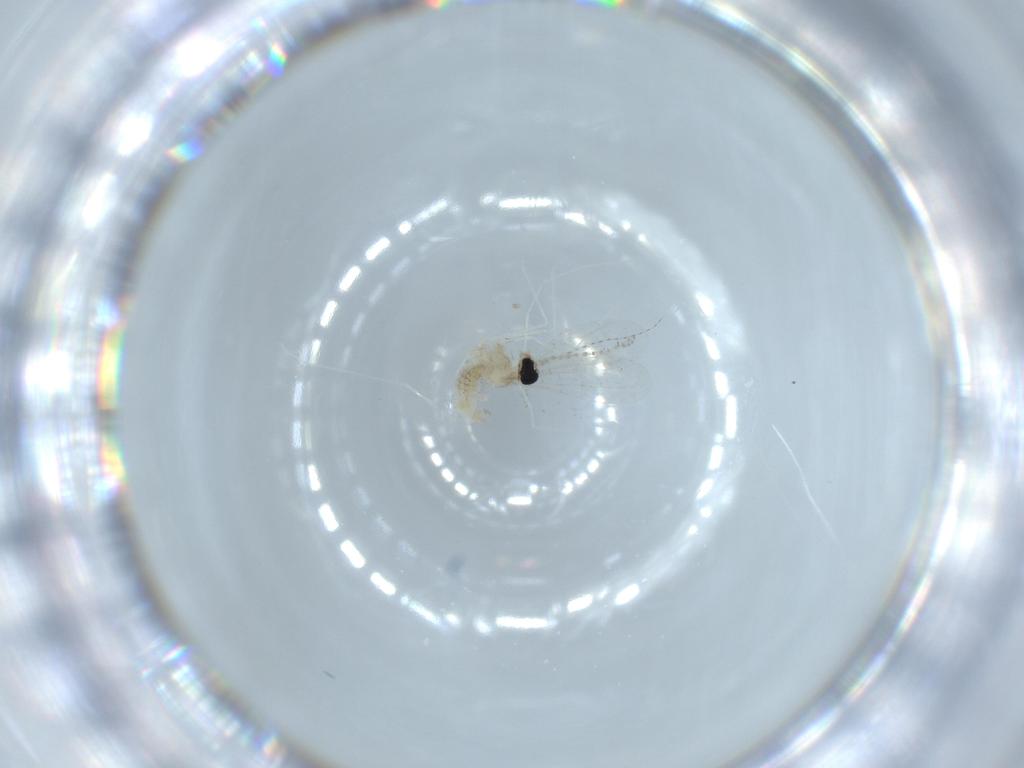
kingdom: Animalia
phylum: Arthropoda
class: Insecta
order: Diptera
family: Cecidomyiidae
